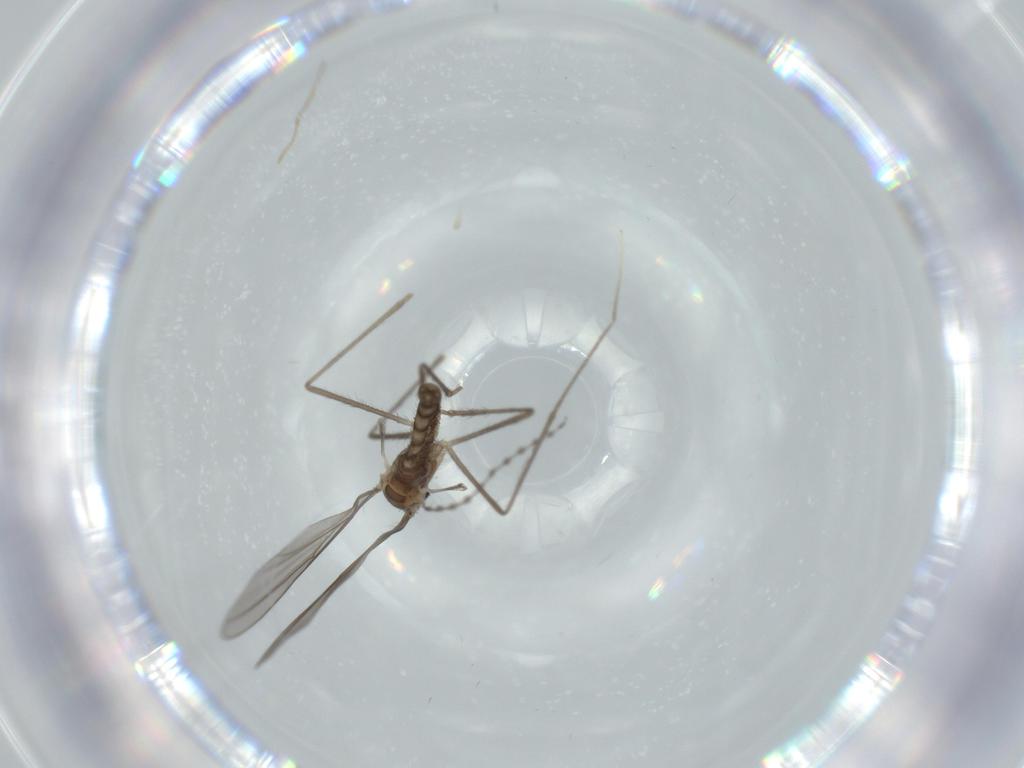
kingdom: Animalia
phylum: Arthropoda
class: Insecta
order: Diptera
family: Cecidomyiidae
